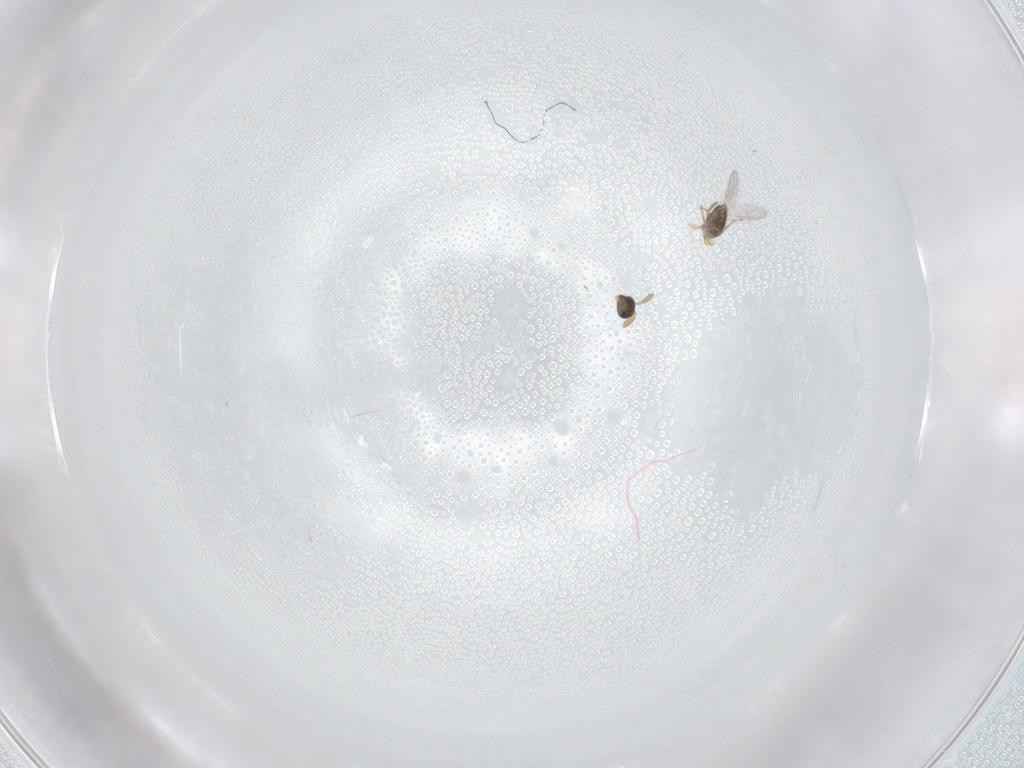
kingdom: Animalia
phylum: Arthropoda
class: Insecta
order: Hymenoptera
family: Encyrtidae
